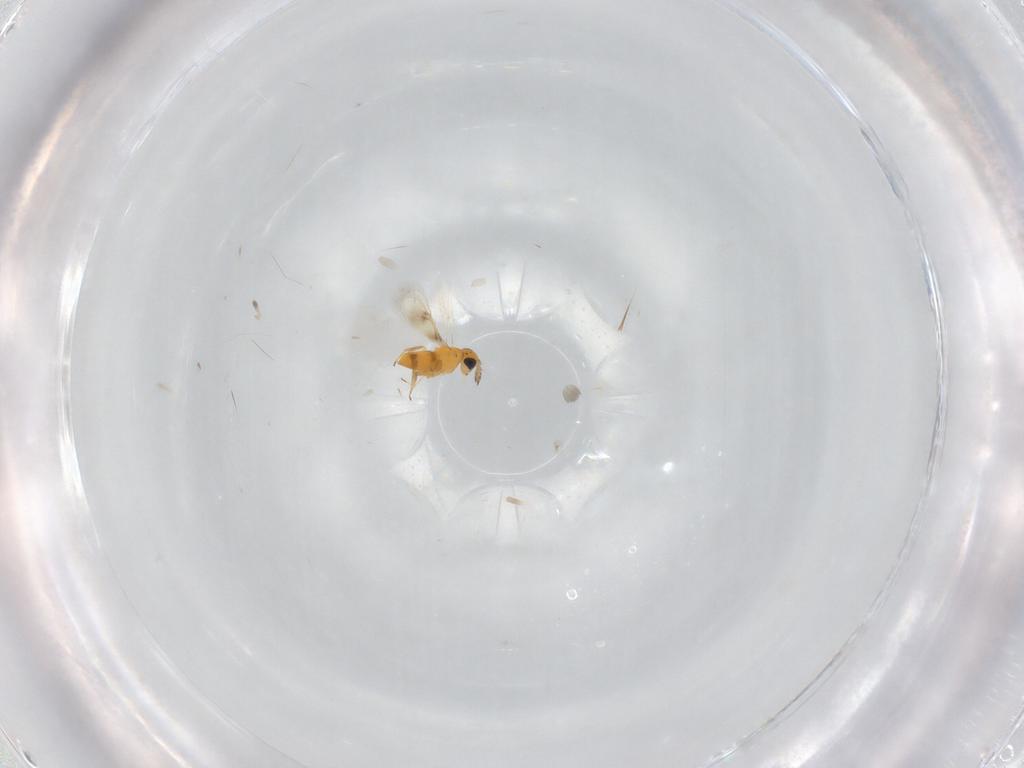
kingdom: Animalia
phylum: Arthropoda
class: Insecta
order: Hymenoptera
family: Aphelinidae
